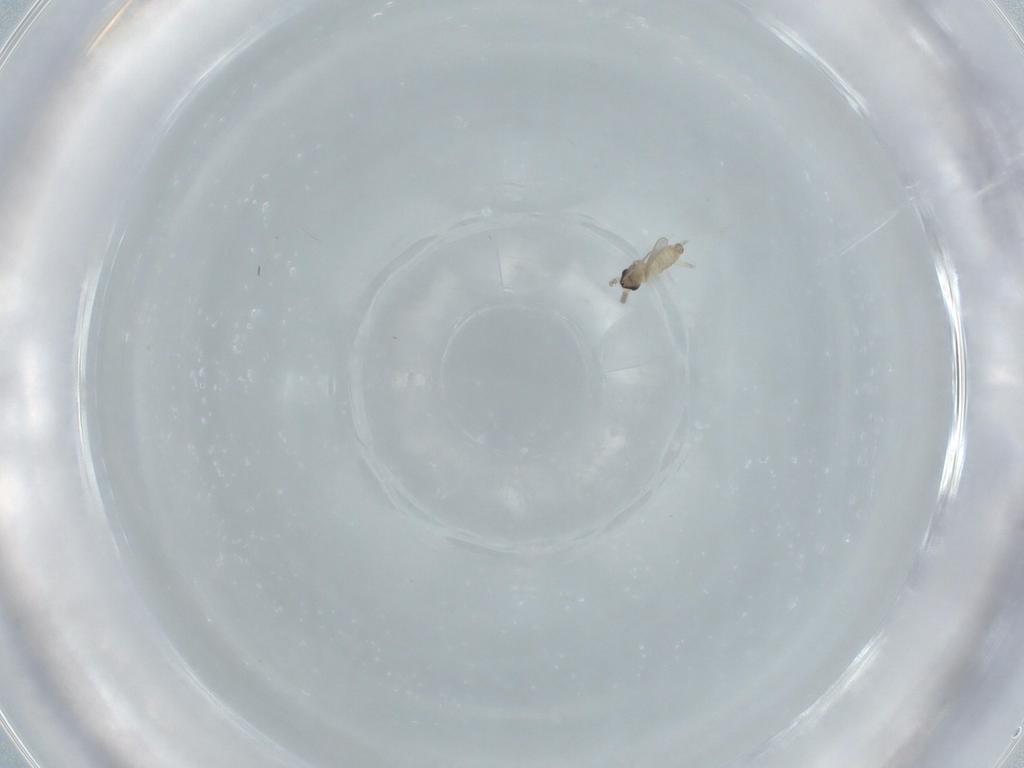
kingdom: Animalia
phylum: Arthropoda
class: Insecta
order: Diptera
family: Cecidomyiidae
